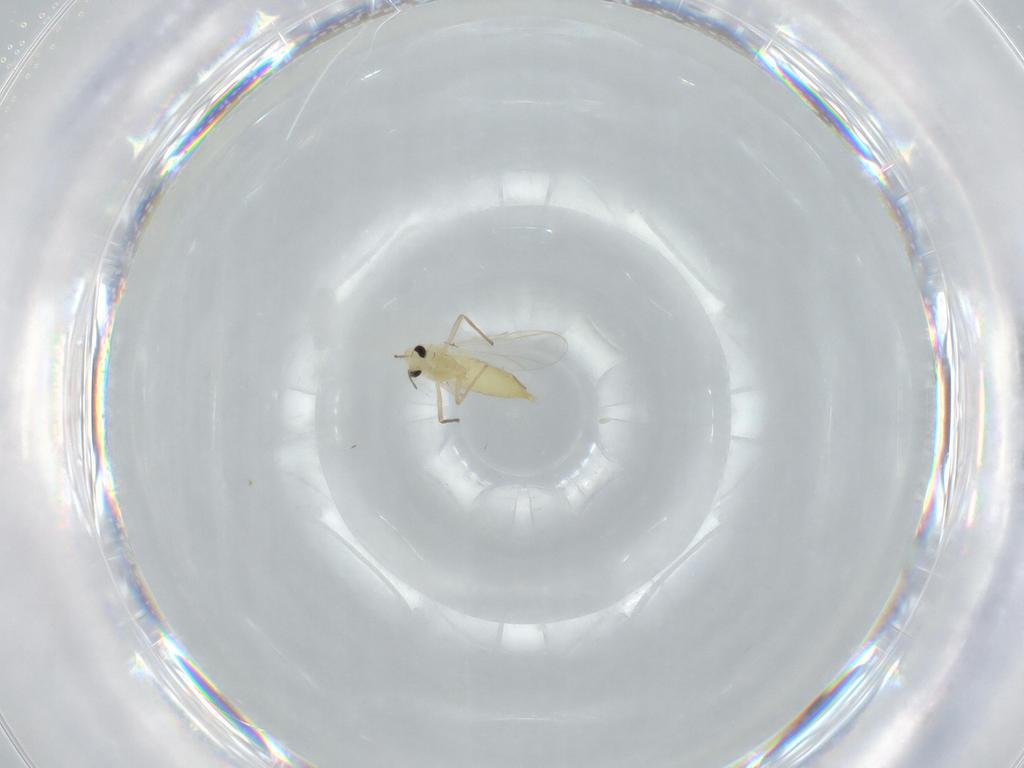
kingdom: Animalia
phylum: Arthropoda
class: Insecta
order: Diptera
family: Chironomidae
